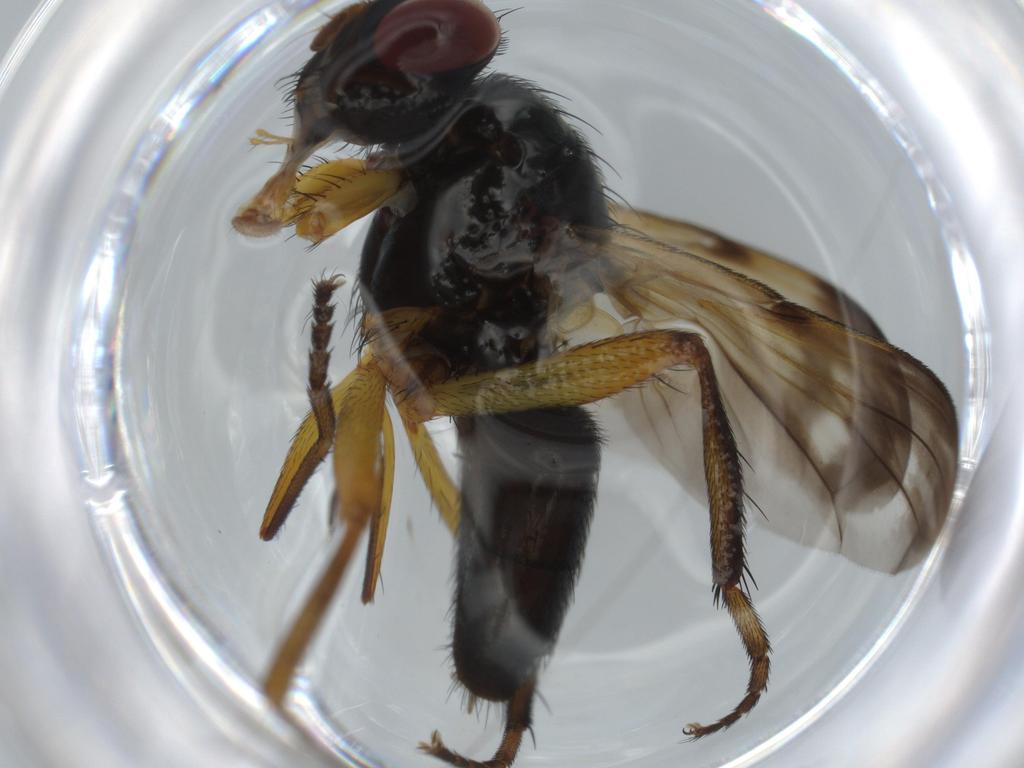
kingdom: Animalia
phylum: Arthropoda
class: Insecta
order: Diptera
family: Calliphoridae
